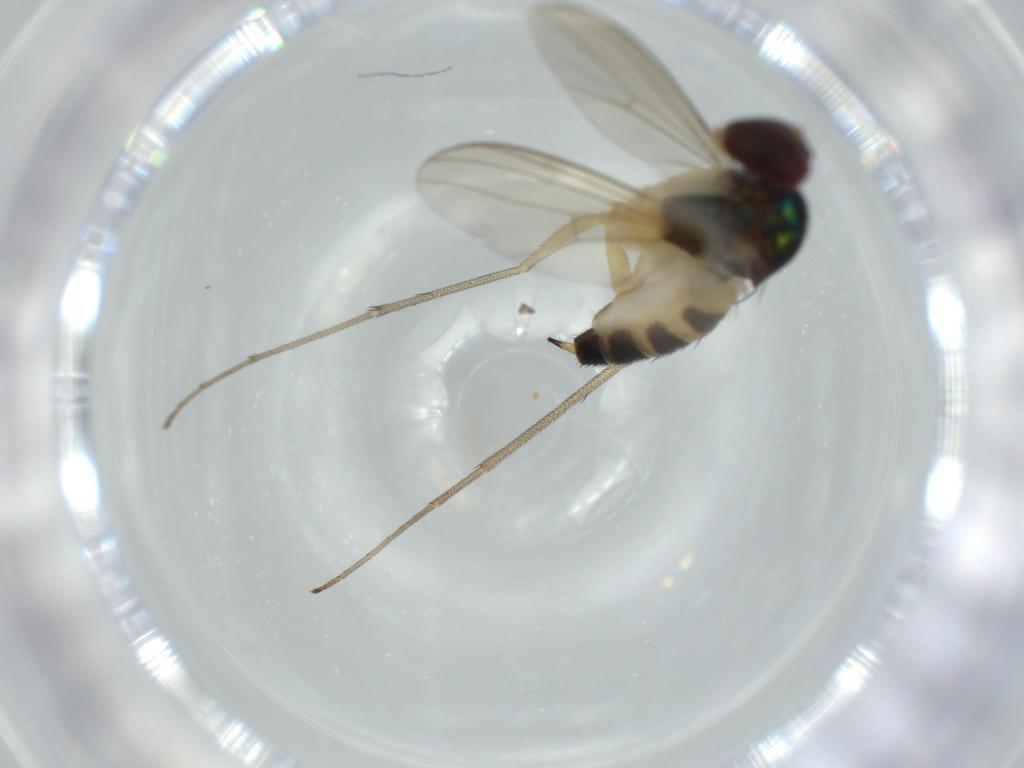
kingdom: Animalia
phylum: Arthropoda
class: Insecta
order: Diptera
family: Dolichopodidae
